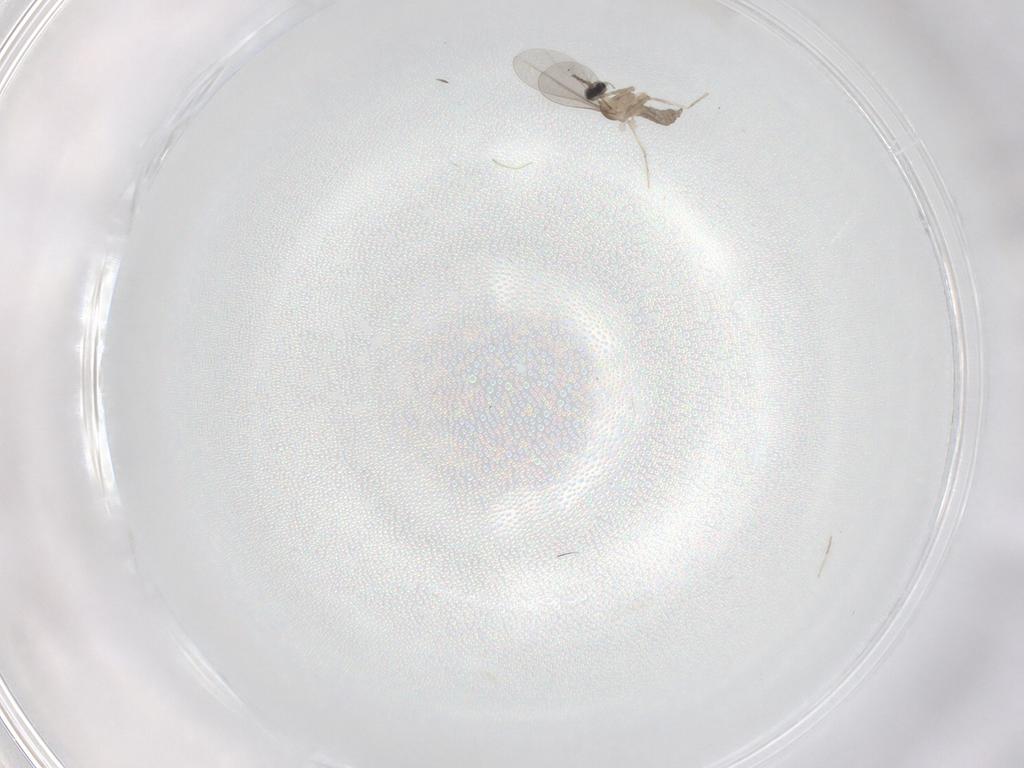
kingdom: Animalia
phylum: Arthropoda
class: Insecta
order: Diptera
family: Cecidomyiidae
